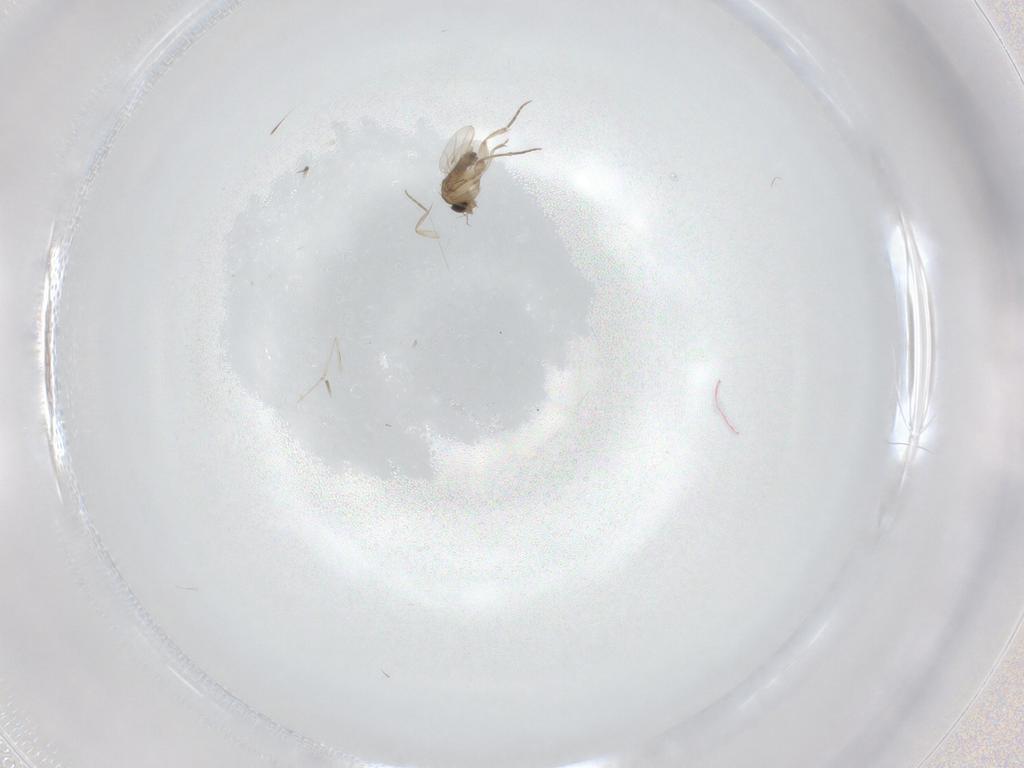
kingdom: Animalia
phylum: Arthropoda
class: Insecta
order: Diptera
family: Phoridae
